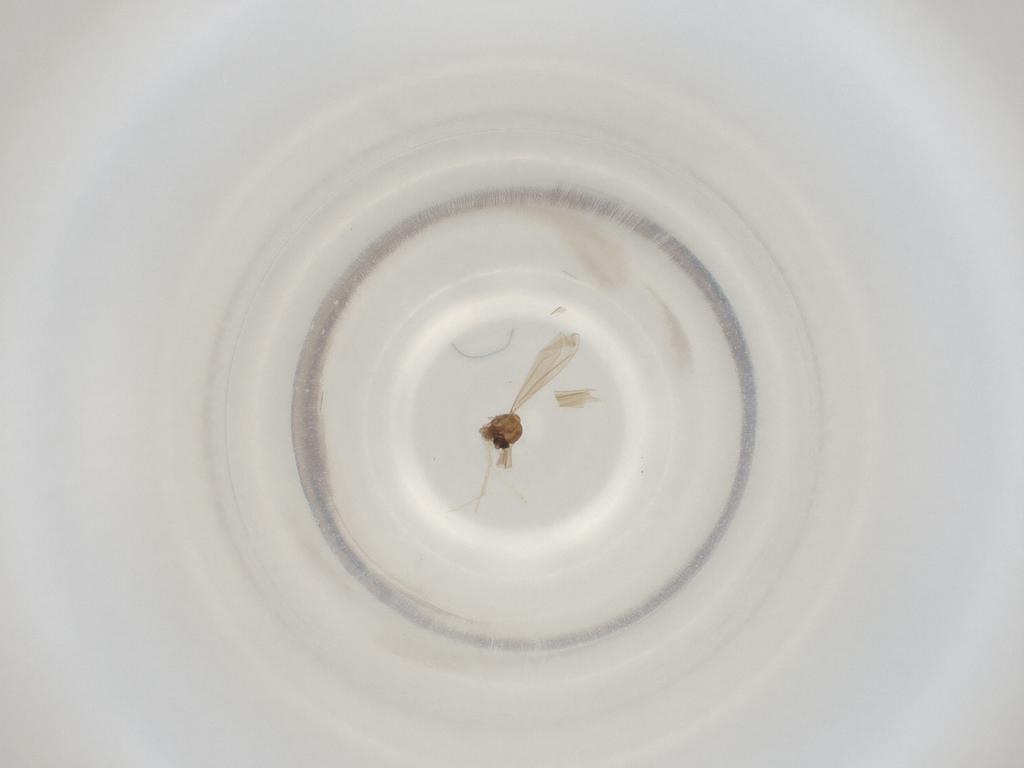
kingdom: Animalia
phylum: Arthropoda
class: Insecta
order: Diptera
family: Cecidomyiidae
